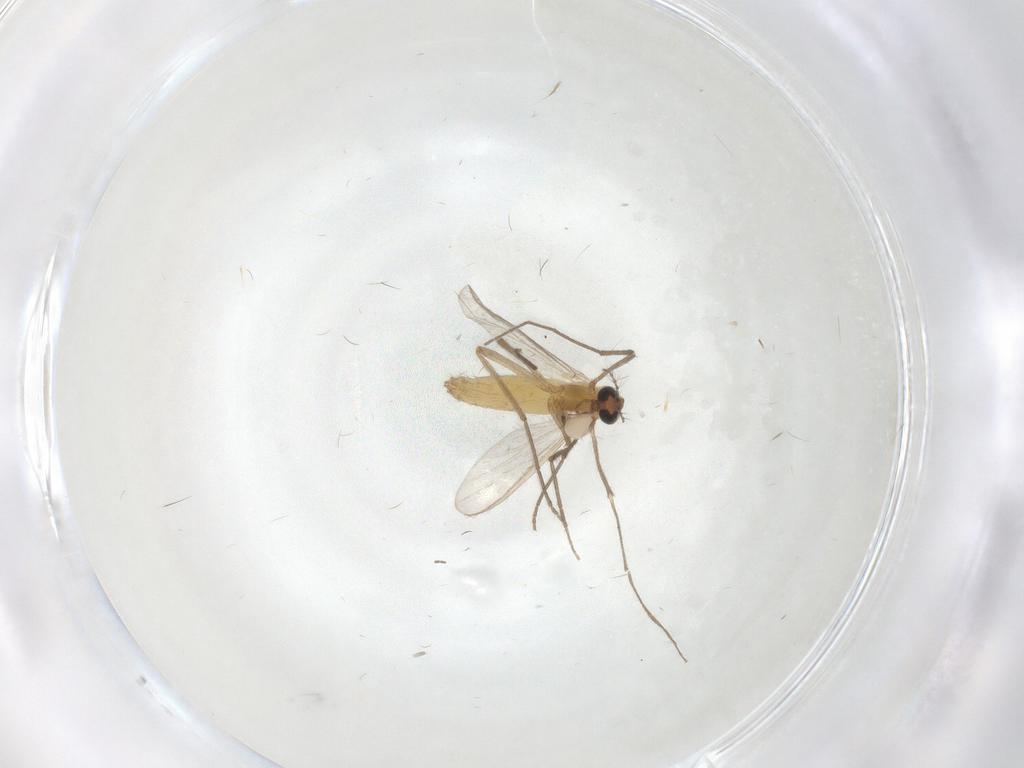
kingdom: Animalia
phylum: Arthropoda
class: Insecta
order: Diptera
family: Chironomidae
